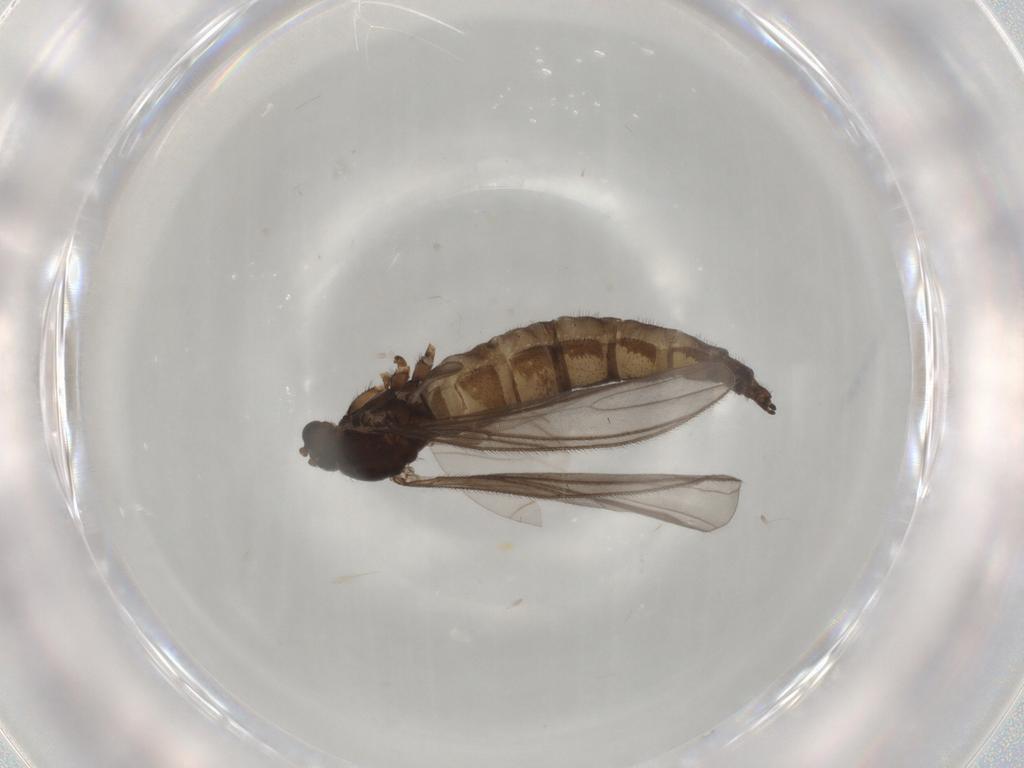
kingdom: Animalia
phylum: Arthropoda
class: Insecta
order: Diptera
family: Sciaridae
